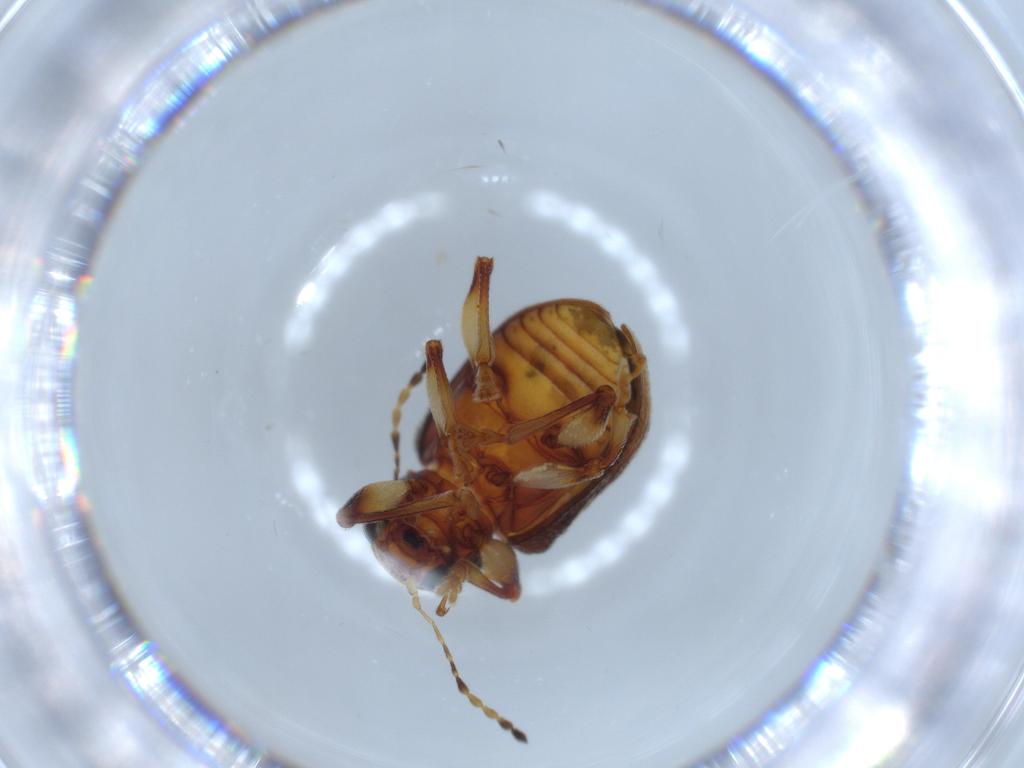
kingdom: Animalia
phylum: Arthropoda
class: Insecta
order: Coleoptera
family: Chrysomelidae
